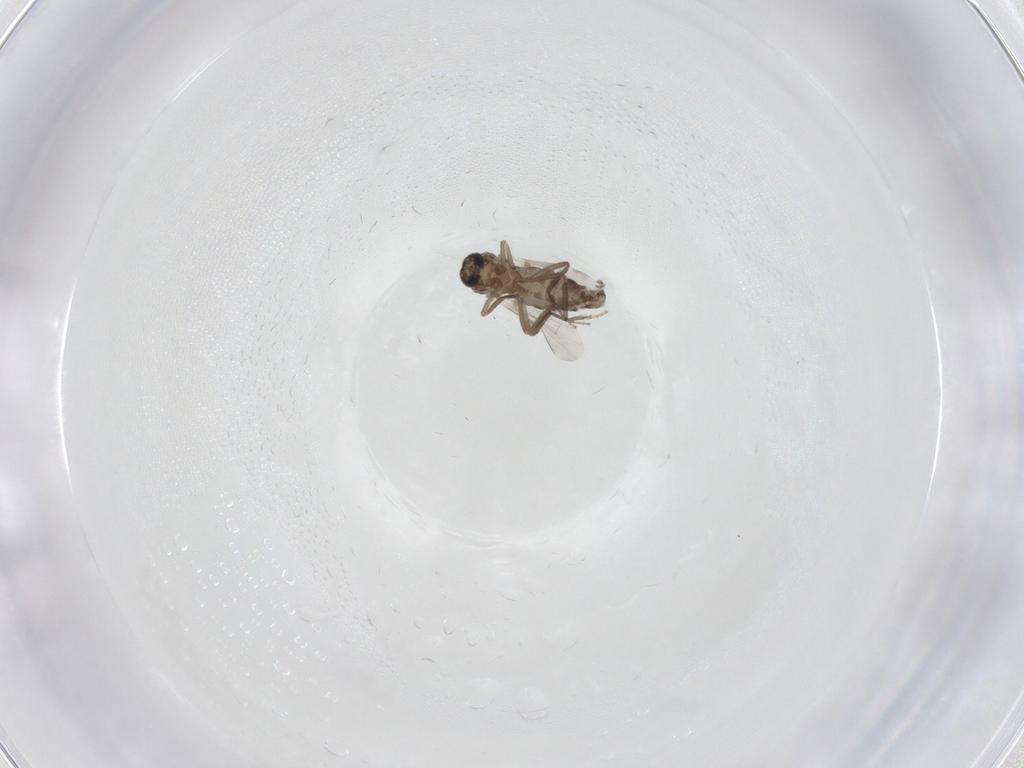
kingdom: Animalia
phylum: Arthropoda
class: Insecta
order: Diptera
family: Ceratopogonidae
